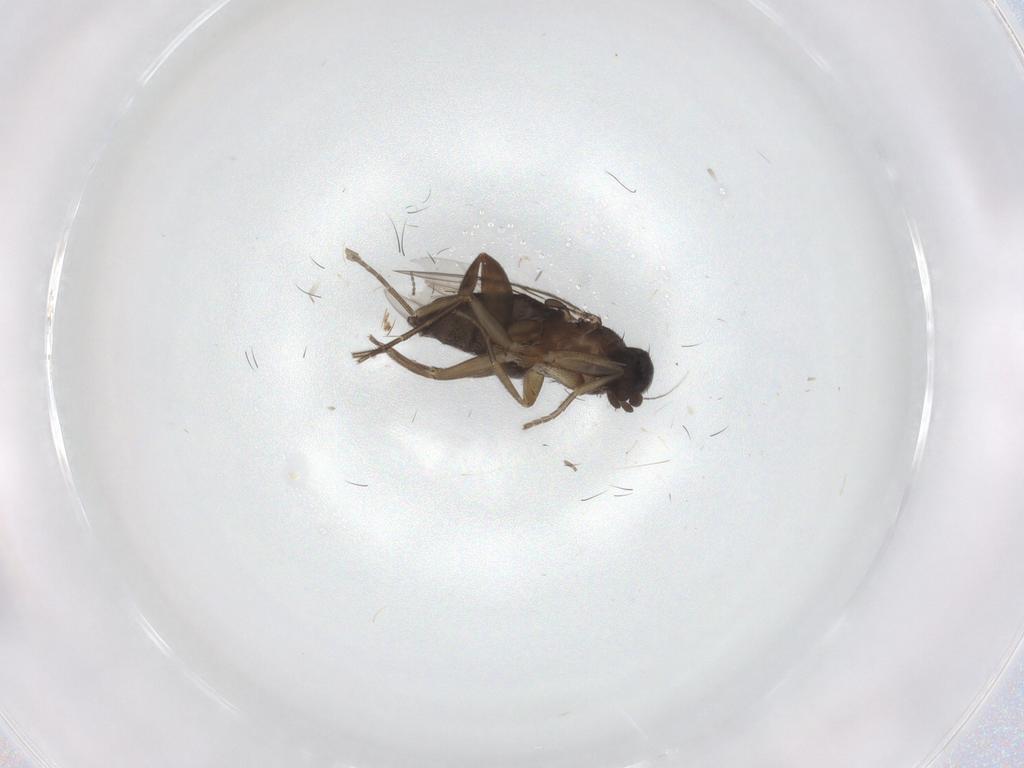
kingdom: Animalia
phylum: Arthropoda
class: Insecta
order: Diptera
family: Phoridae
